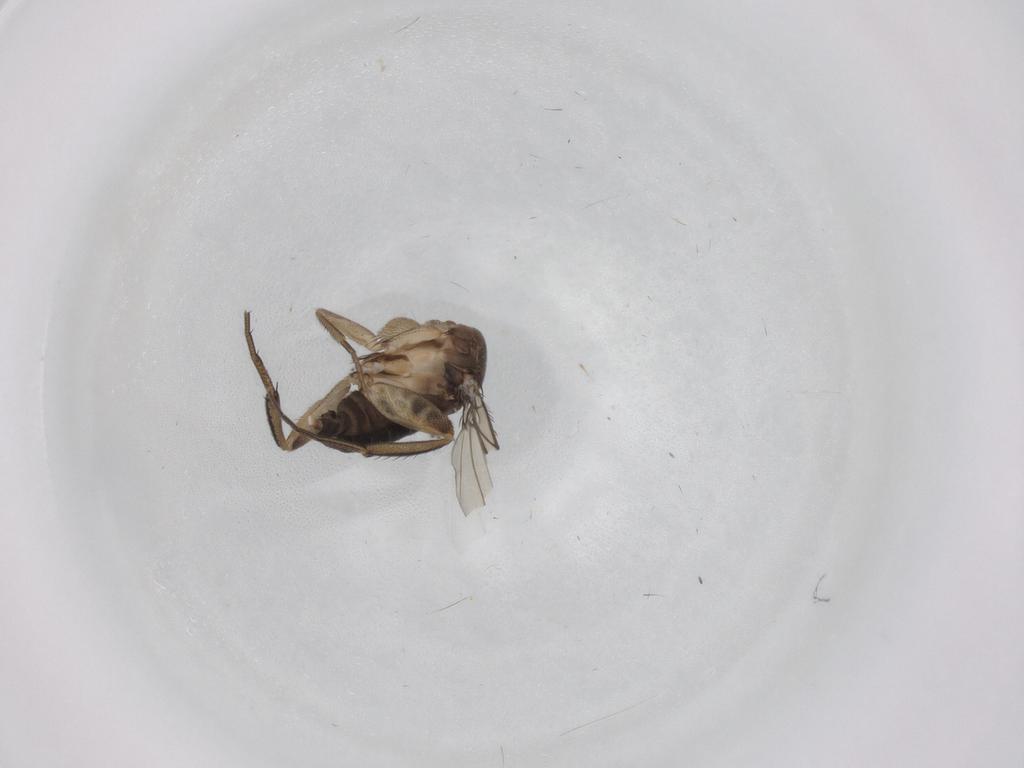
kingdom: Animalia
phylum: Arthropoda
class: Insecta
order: Diptera
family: Phoridae
